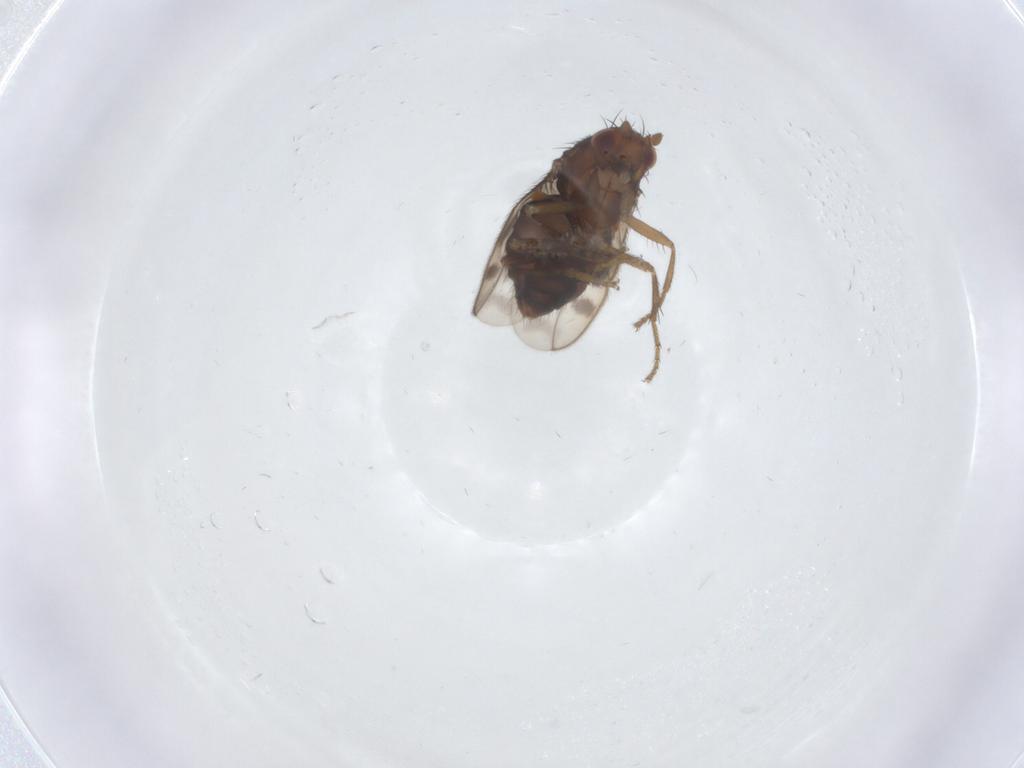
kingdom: Animalia
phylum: Arthropoda
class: Insecta
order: Diptera
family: Sphaeroceridae
